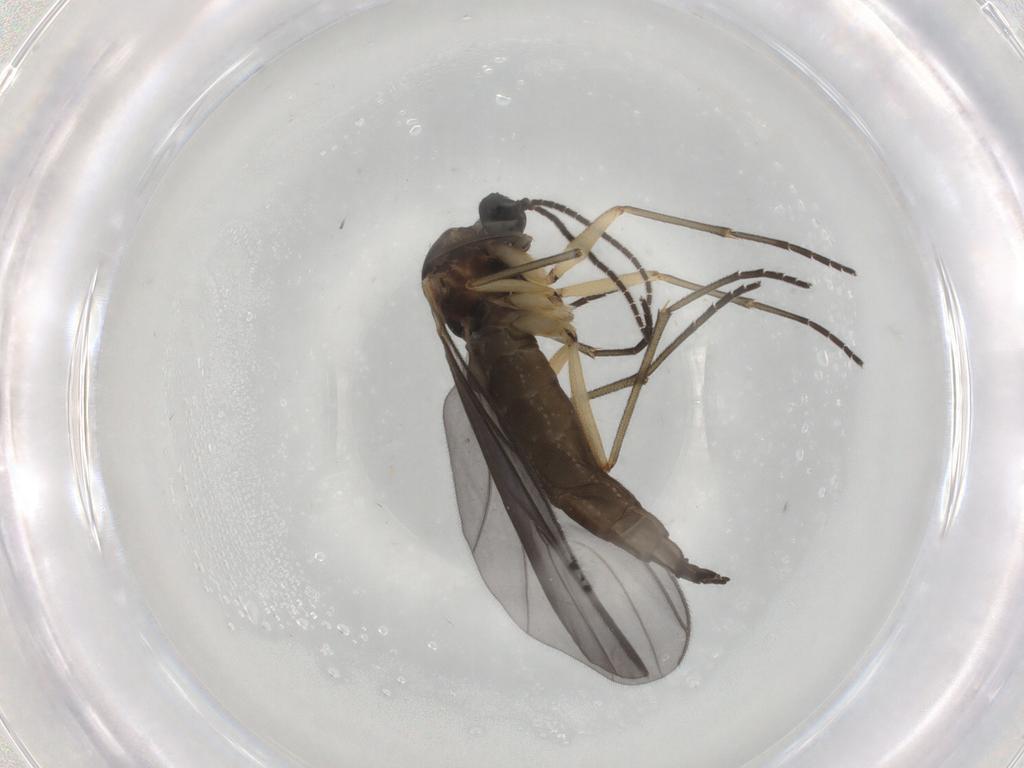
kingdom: Animalia
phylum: Arthropoda
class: Insecta
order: Diptera
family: Sciaridae
